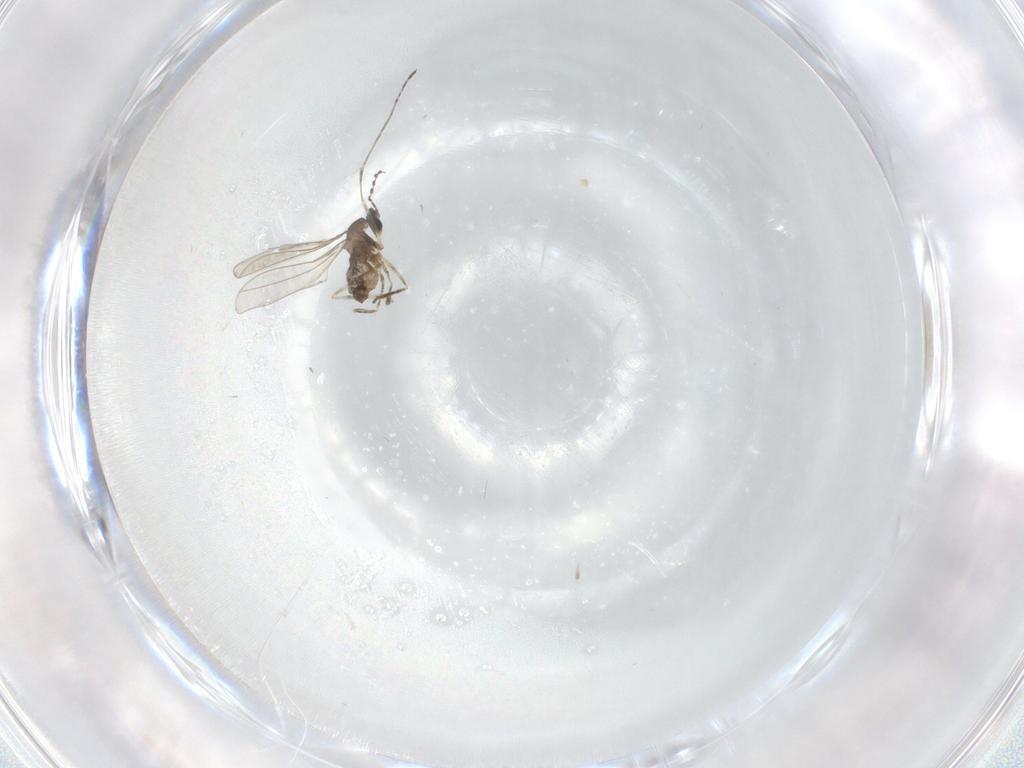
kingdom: Animalia
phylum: Arthropoda
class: Insecta
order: Diptera
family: Cecidomyiidae
